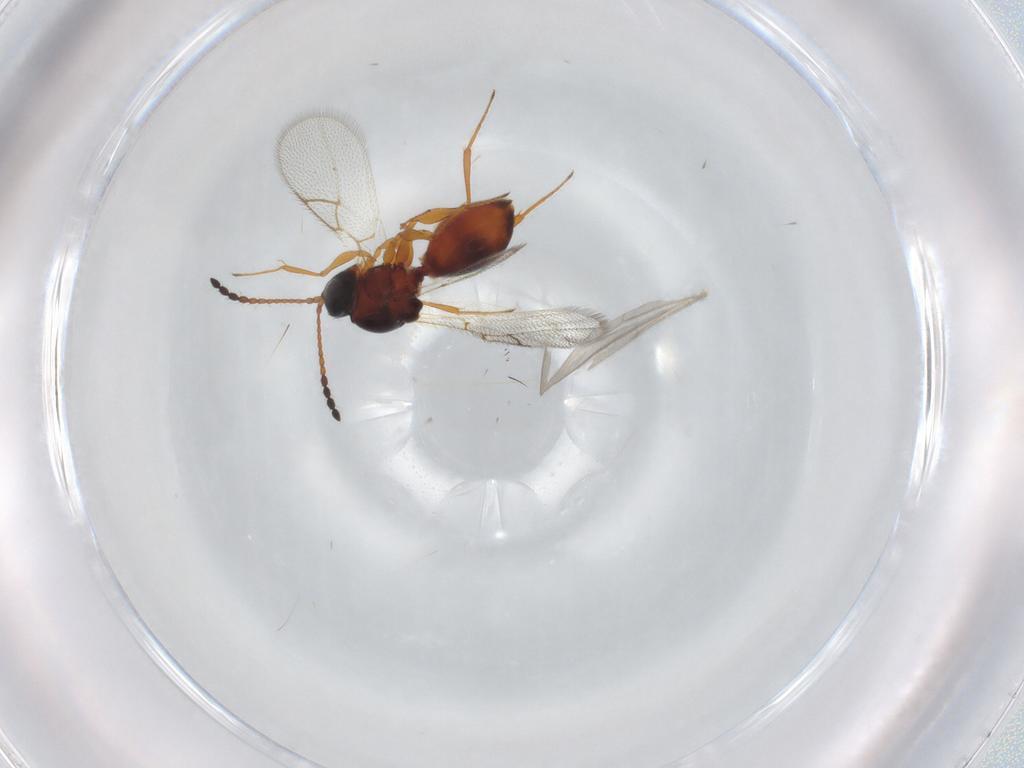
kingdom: Animalia
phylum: Arthropoda
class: Insecta
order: Hymenoptera
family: Figitidae
